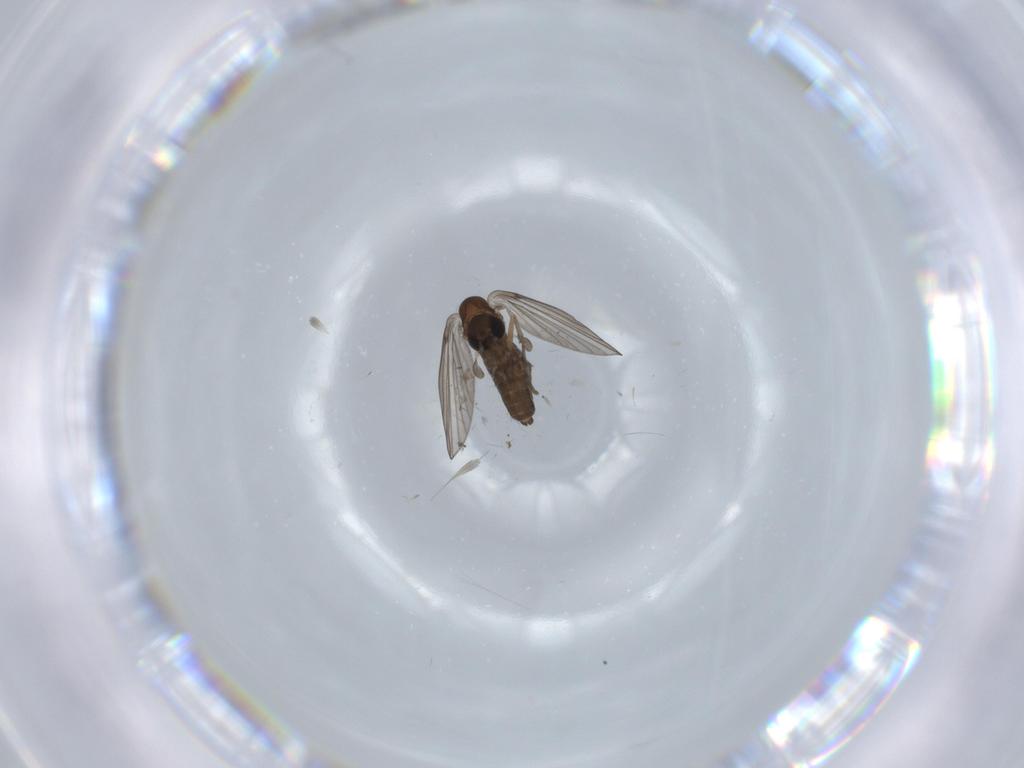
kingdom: Animalia
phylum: Arthropoda
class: Insecta
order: Diptera
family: Psychodidae
